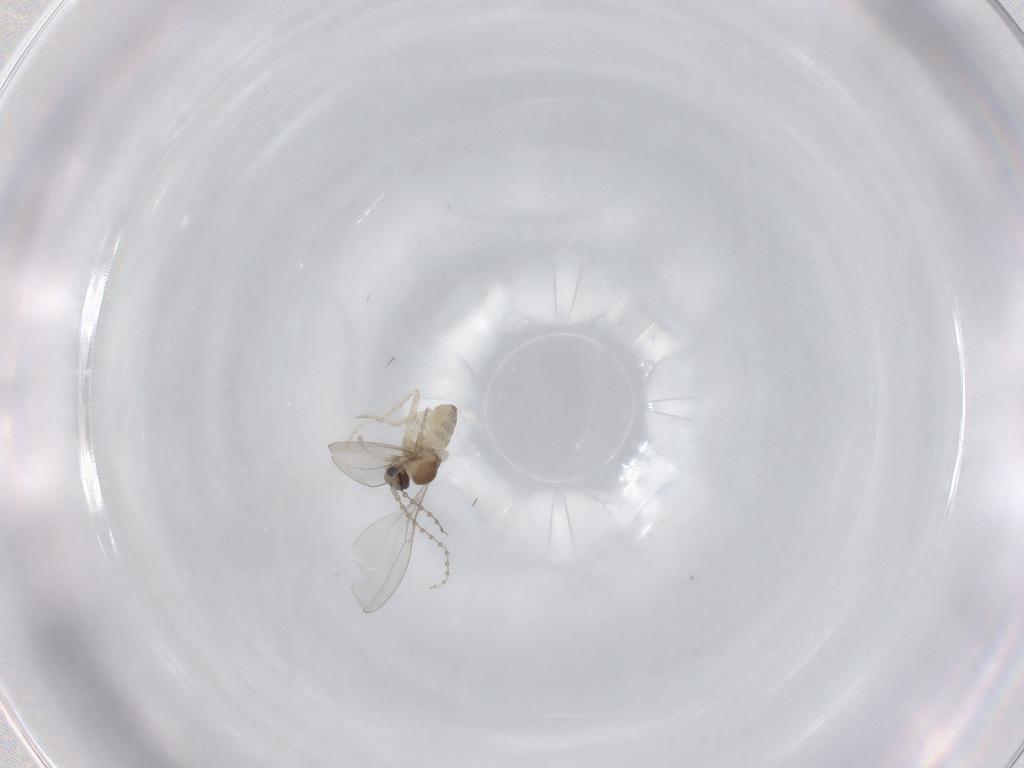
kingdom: Animalia
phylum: Arthropoda
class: Insecta
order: Diptera
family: Cecidomyiidae
